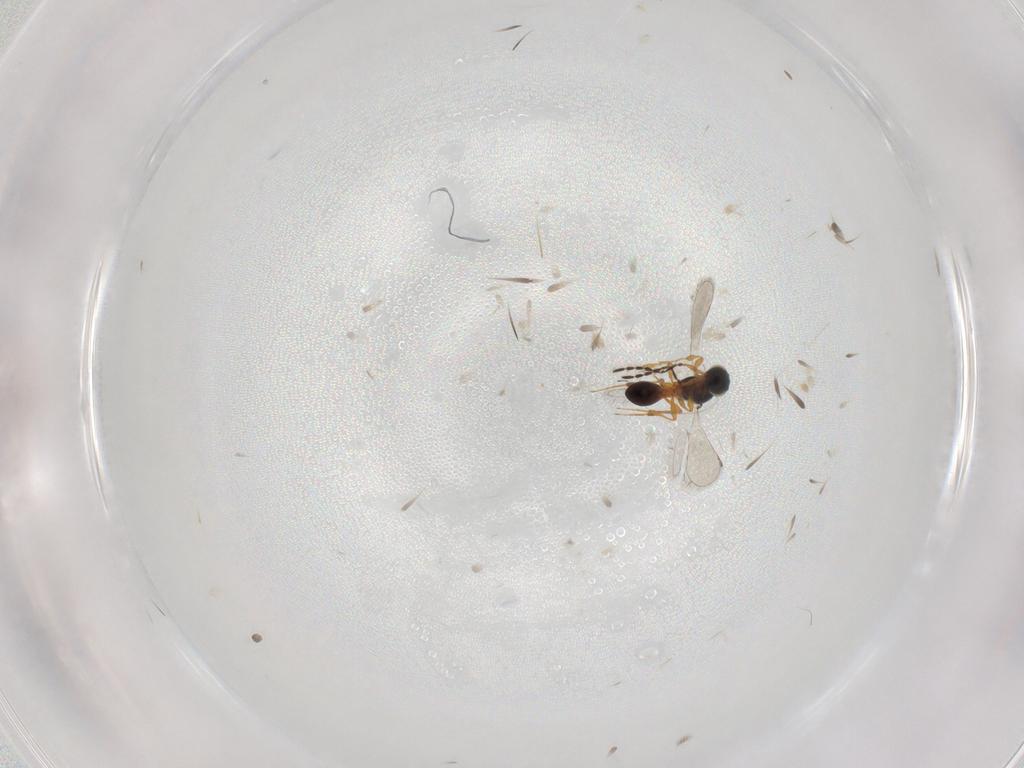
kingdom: Animalia
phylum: Arthropoda
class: Insecta
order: Hymenoptera
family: Platygastridae
